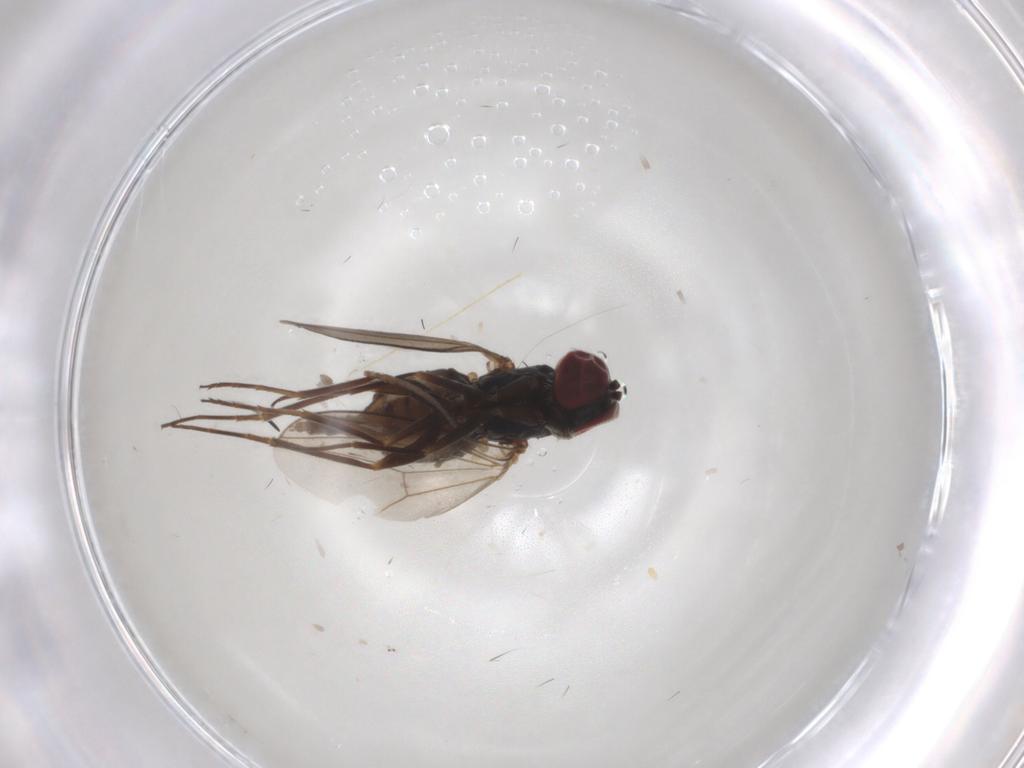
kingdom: Animalia
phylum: Arthropoda
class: Insecta
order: Diptera
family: Dolichopodidae
